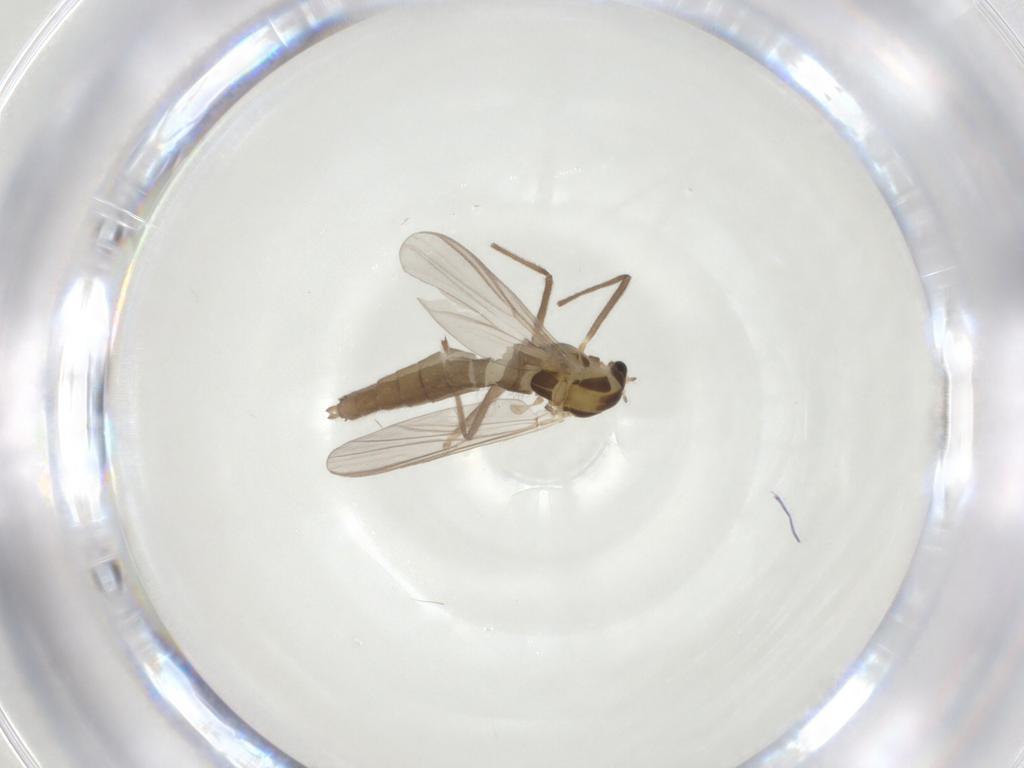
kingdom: Animalia
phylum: Arthropoda
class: Insecta
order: Diptera
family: Chironomidae
